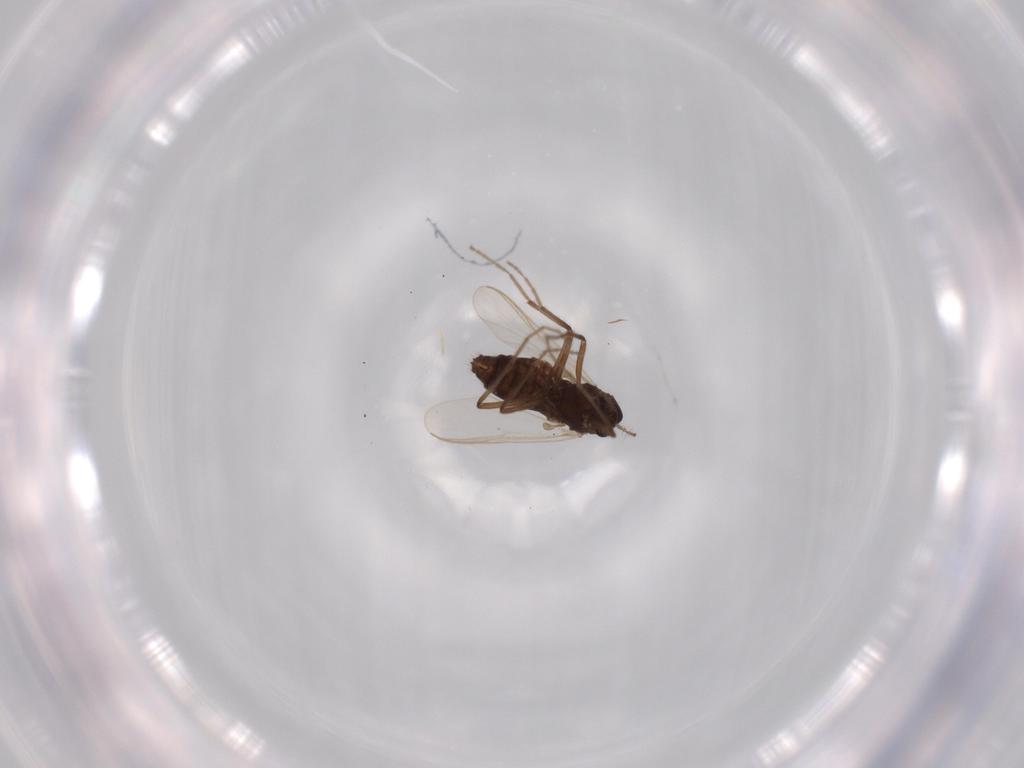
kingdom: Animalia
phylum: Arthropoda
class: Insecta
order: Diptera
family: Chironomidae
